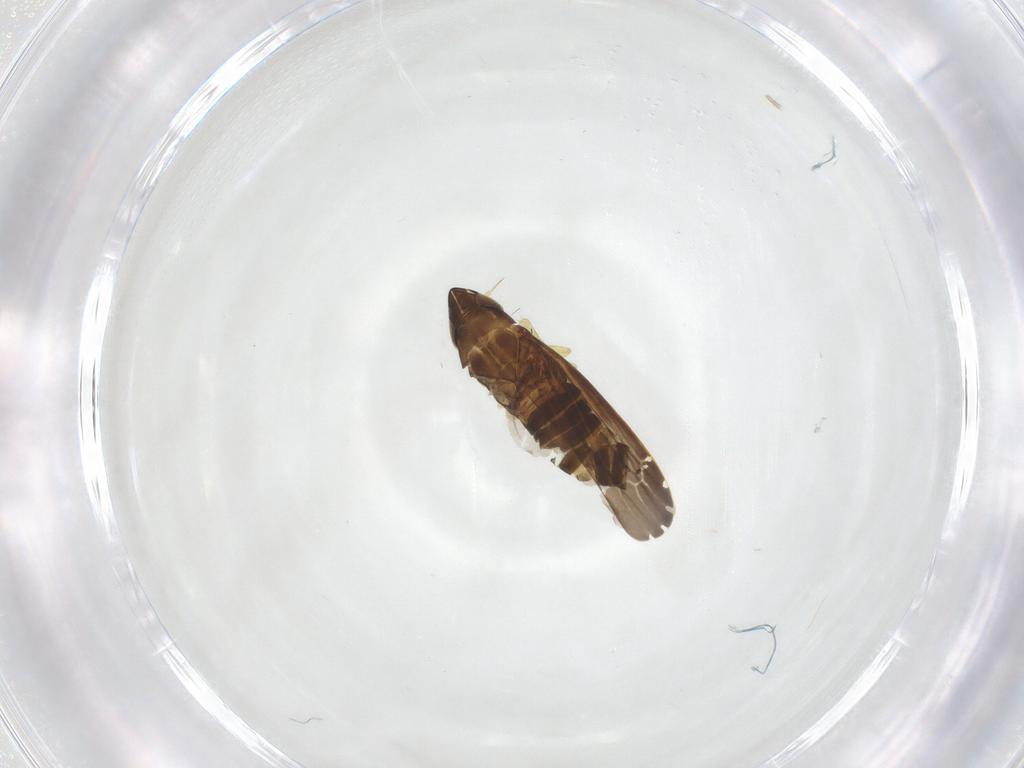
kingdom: Animalia
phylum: Arthropoda
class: Insecta
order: Hemiptera
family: Cicadellidae
